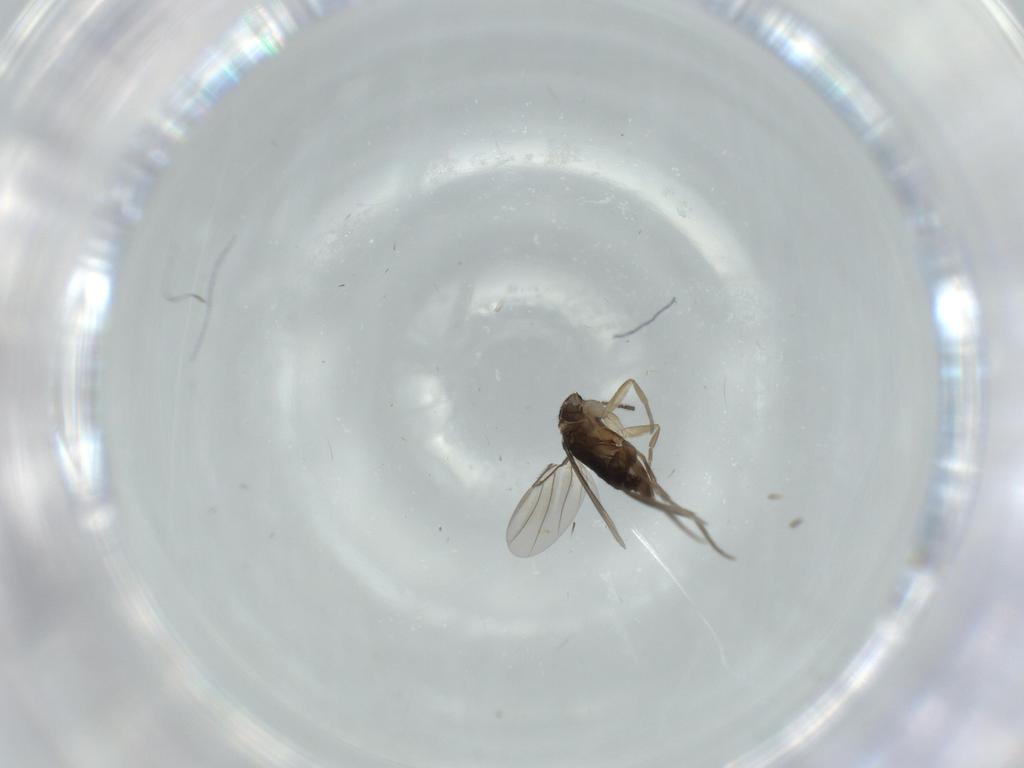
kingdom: Animalia
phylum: Arthropoda
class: Insecta
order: Diptera
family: Phoridae
